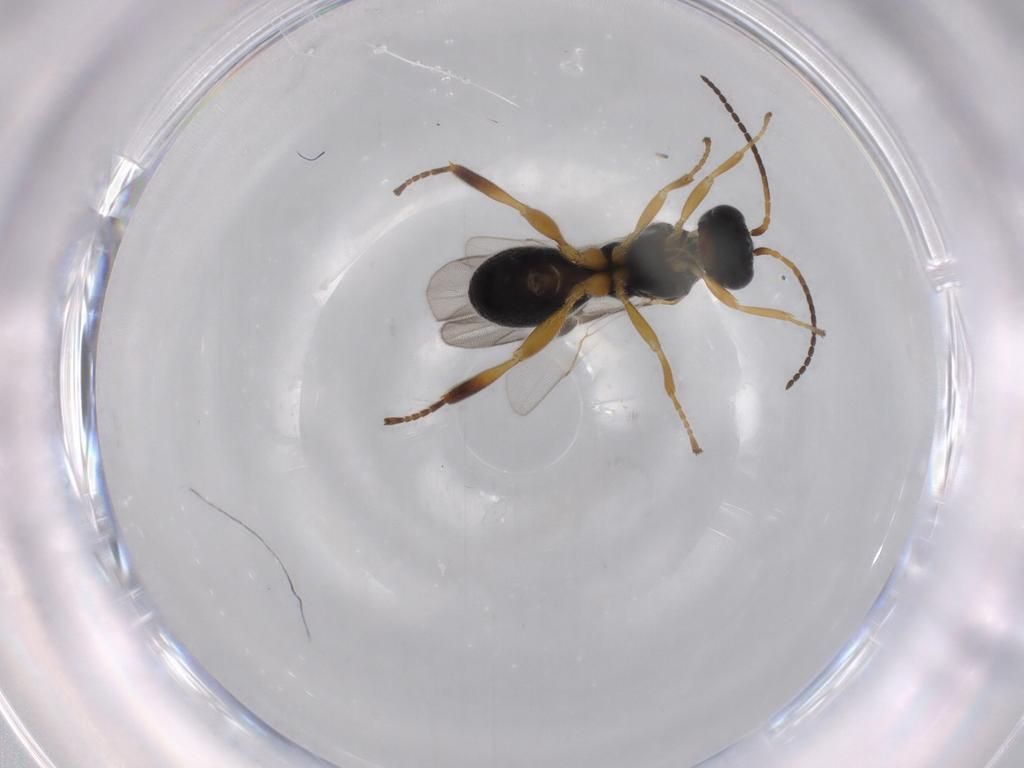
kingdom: Animalia
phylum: Arthropoda
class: Insecta
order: Hymenoptera
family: Braconidae
